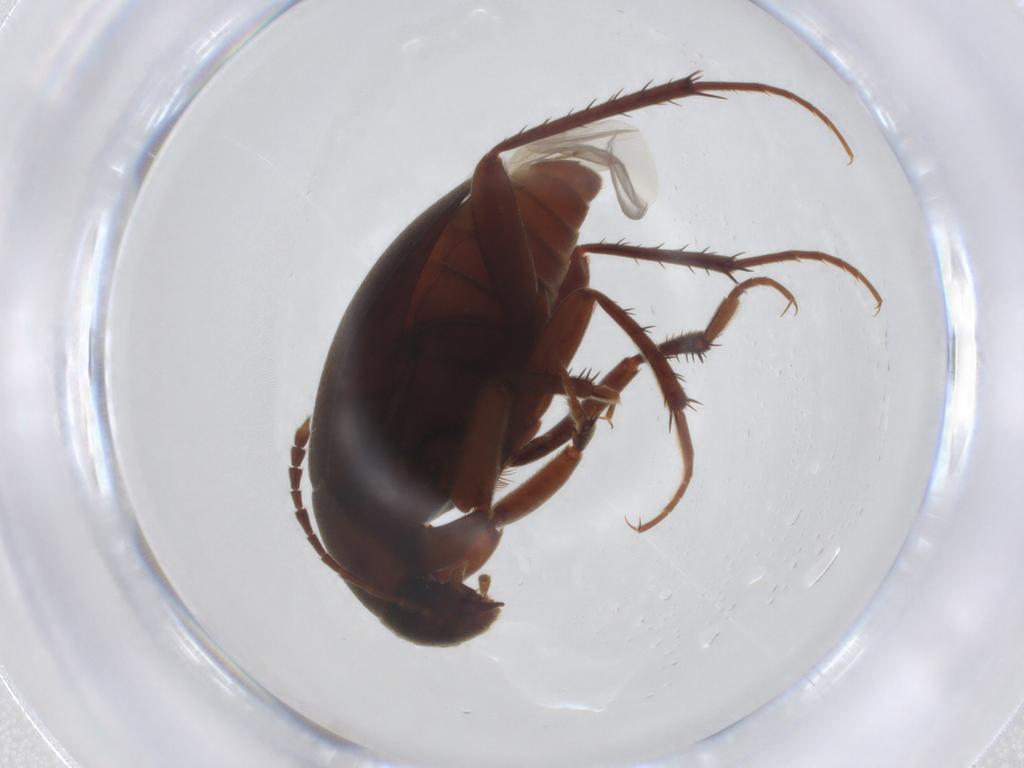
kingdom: Animalia
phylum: Arthropoda
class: Insecta
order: Coleoptera
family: Leiodidae
